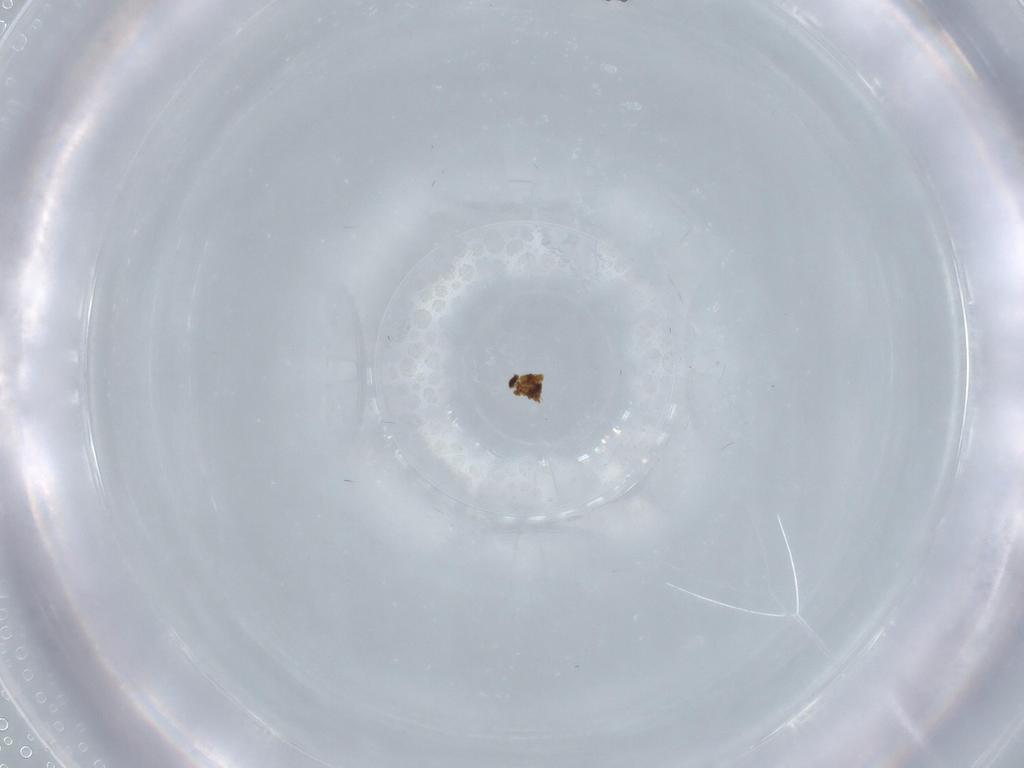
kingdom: Animalia
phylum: Arthropoda
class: Insecta
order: Diptera
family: Cecidomyiidae
